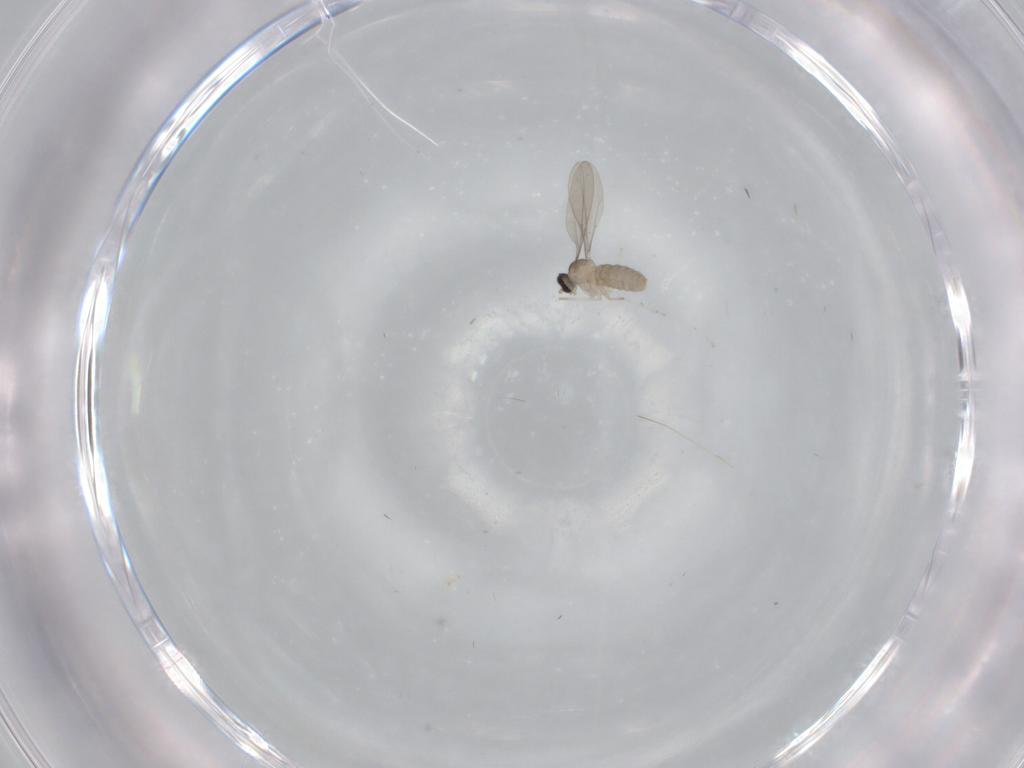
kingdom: Animalia
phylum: Arthropoda
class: Insecta
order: Diptera
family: Cecidomyiidae
